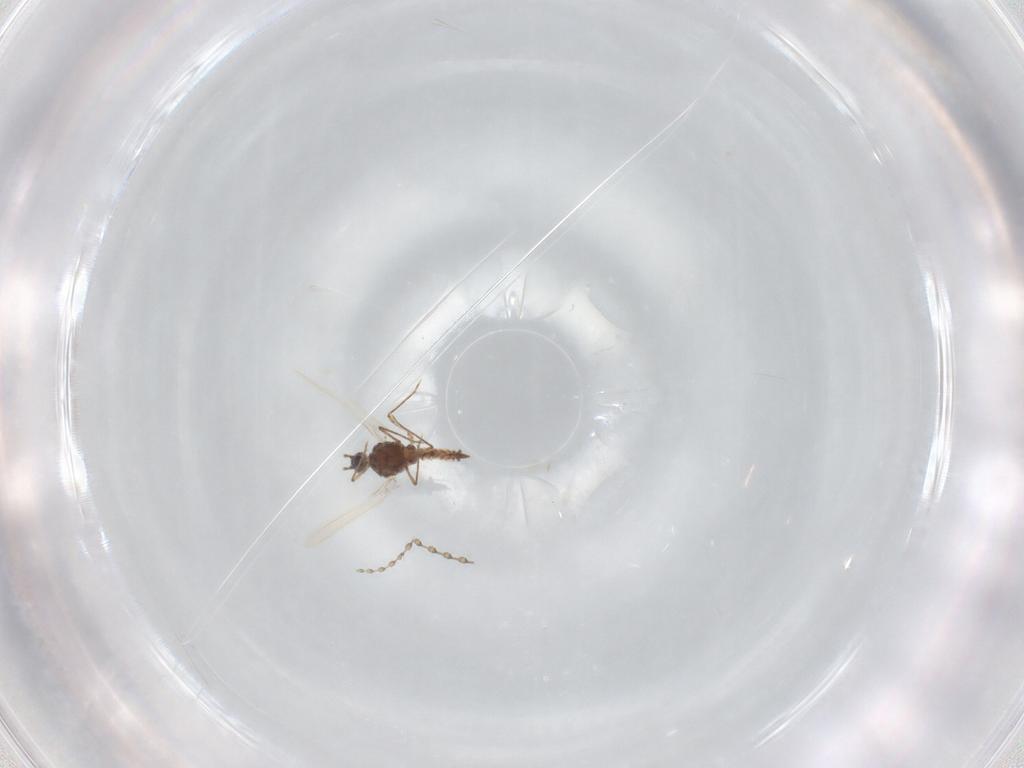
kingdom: Animalia
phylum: Arthropoda
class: Insecta
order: Diptera
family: Cecidomyiidae
